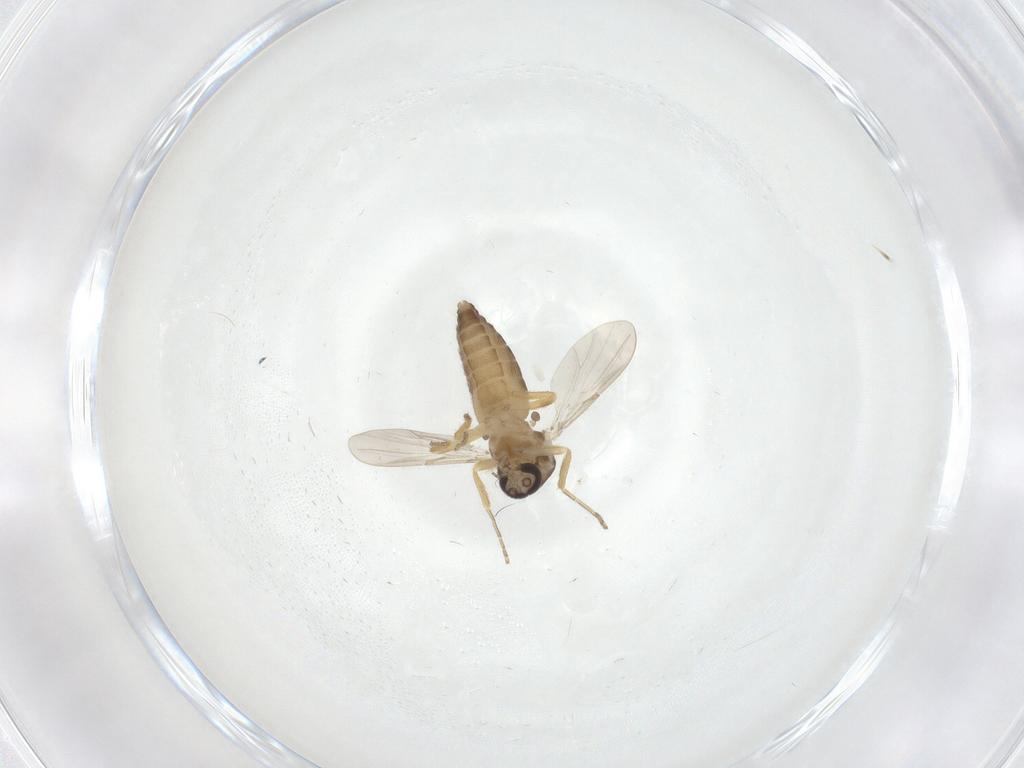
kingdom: Animalia
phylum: Arthropoda
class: Insecta
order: Diptera
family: Ceratopogonidae
